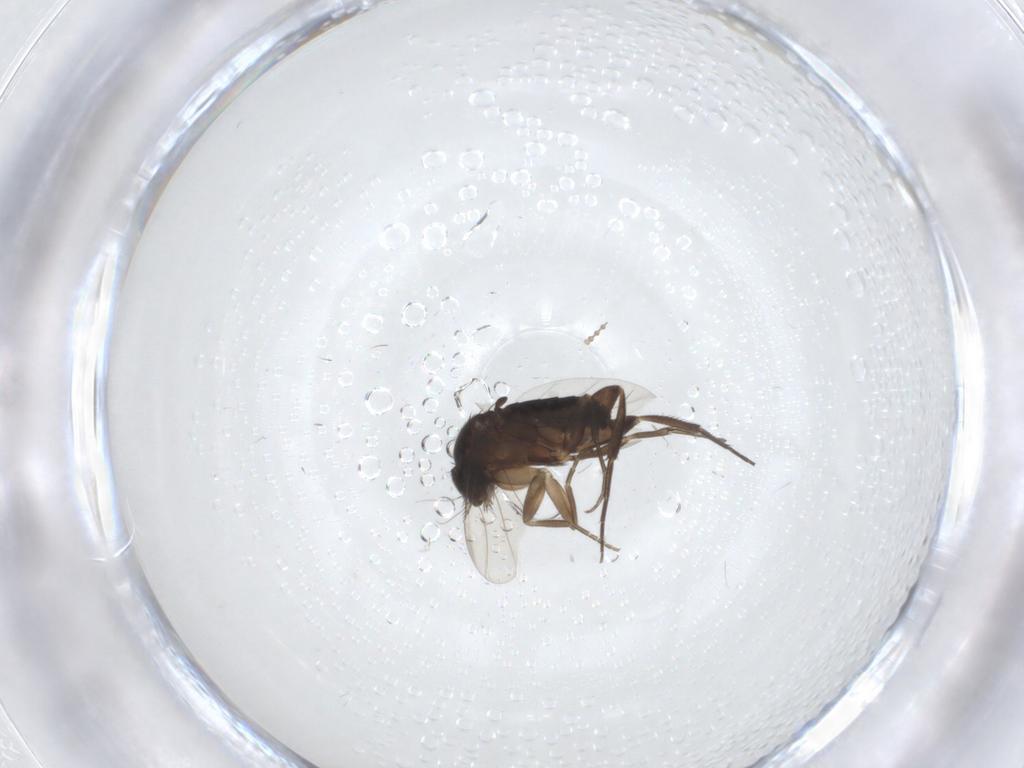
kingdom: Animalia
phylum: Arthropoda
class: Insecta
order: Diptera
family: Phoridae
